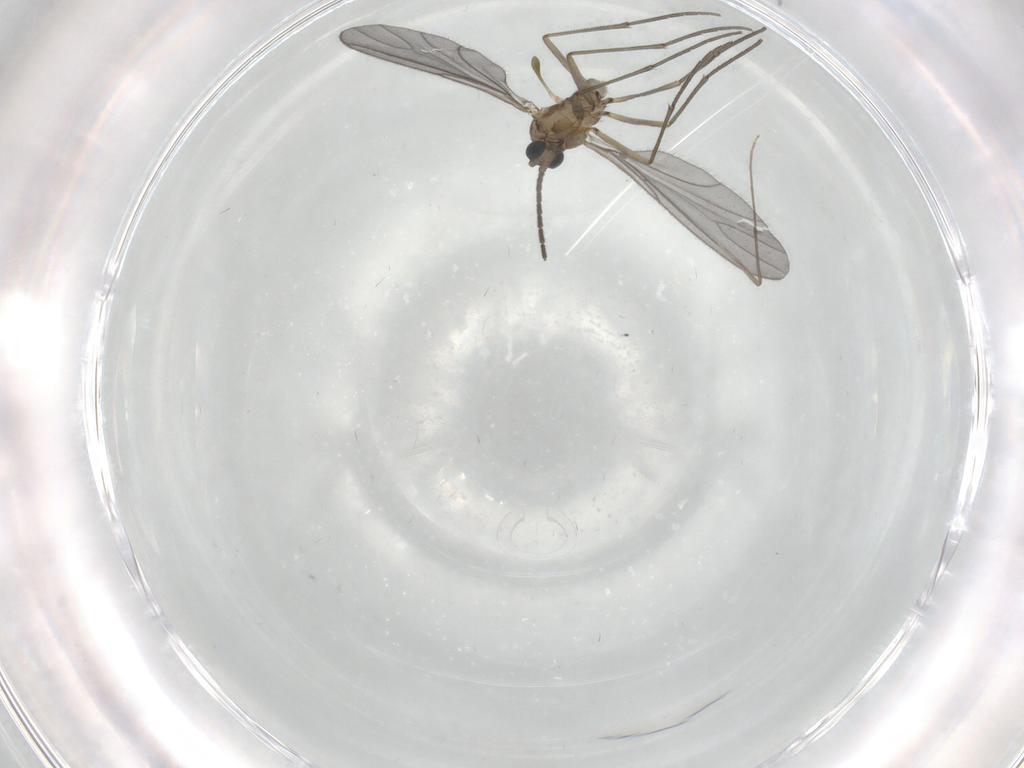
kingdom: Animalia
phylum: Arthropoda
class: Insecta
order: Diptera
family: Sciaridae
